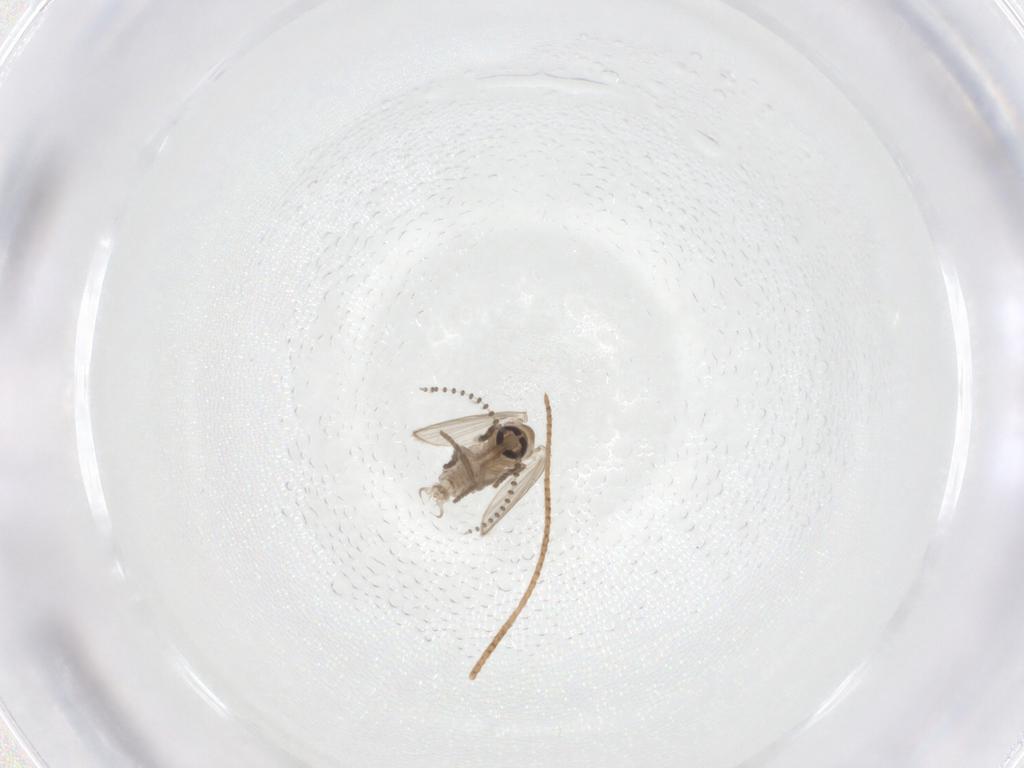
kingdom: Animalia
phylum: Arthropoda
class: Insecta
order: Diptera
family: Psychodidae
